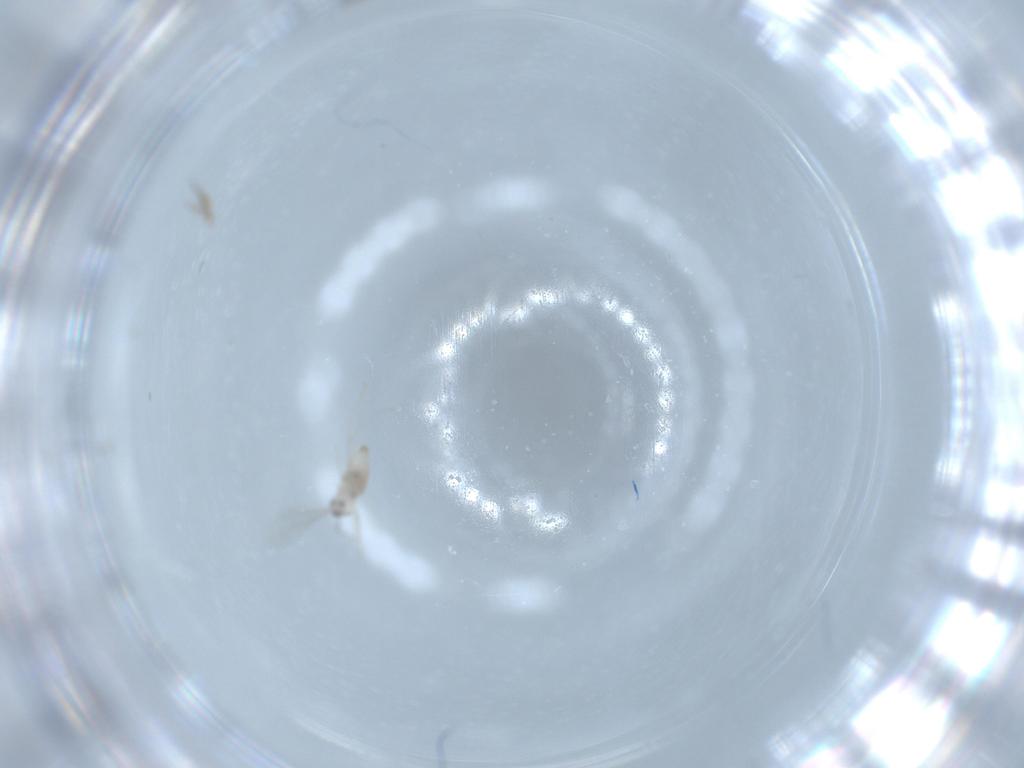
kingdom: Animalia
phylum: Arthropoda
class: Insecta
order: Diptera
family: Cecidomyiidae
